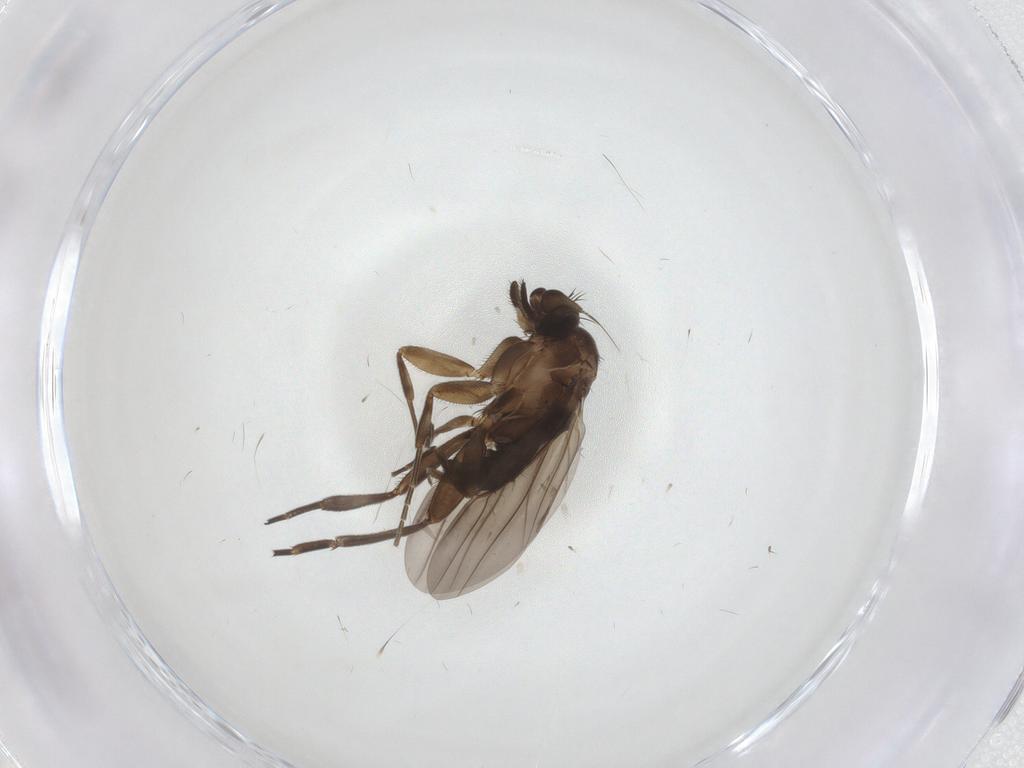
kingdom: Animalia
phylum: Arthropoda
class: Insecta
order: Diptera
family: Phoridae
